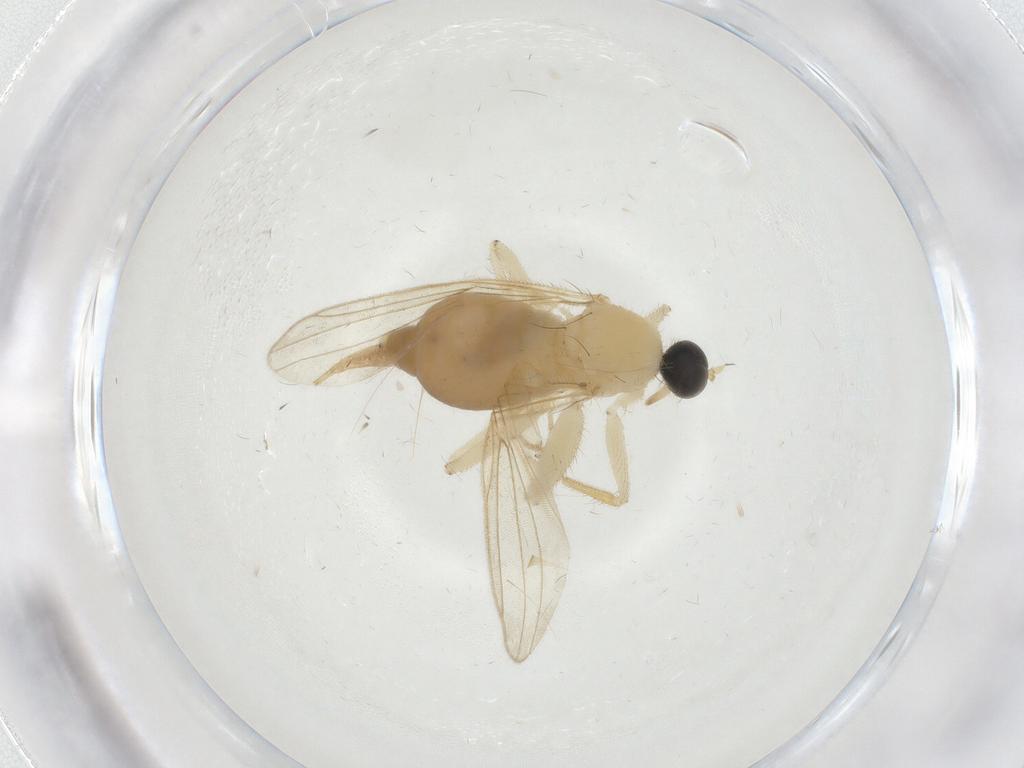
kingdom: Animalia
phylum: Arthropoda
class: Insecta
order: Diptera
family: Hybotidae
